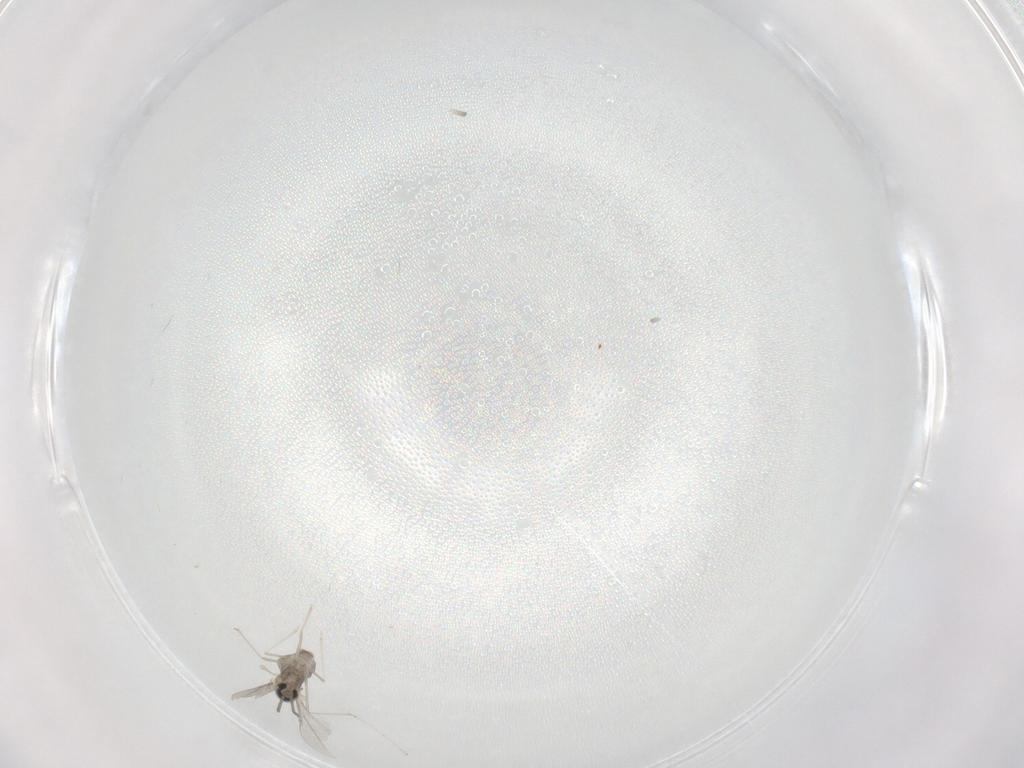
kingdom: Animalia
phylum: Arthropoda
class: Insecta
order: Diptera
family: Cecidomyiidae
